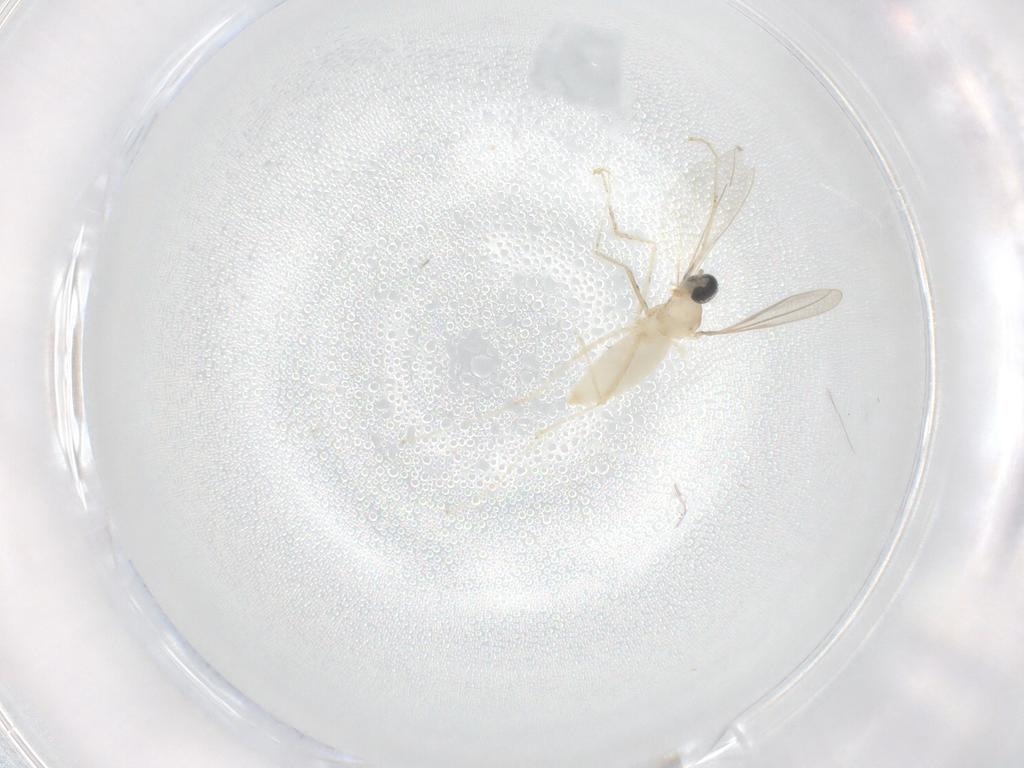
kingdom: Animalia
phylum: Arthropoda
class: Insecta
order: Diptera
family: Cecidomyiidae
